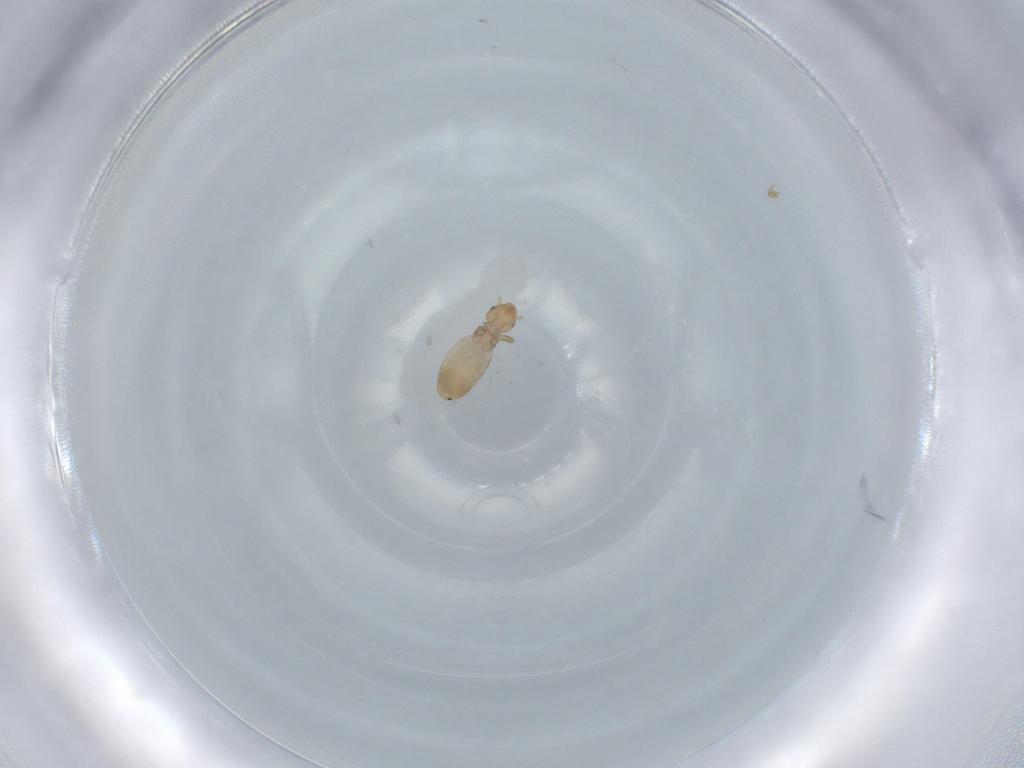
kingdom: Animalia
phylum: Arthropoda
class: Insecta
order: Psocodea
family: Liposcelididae
